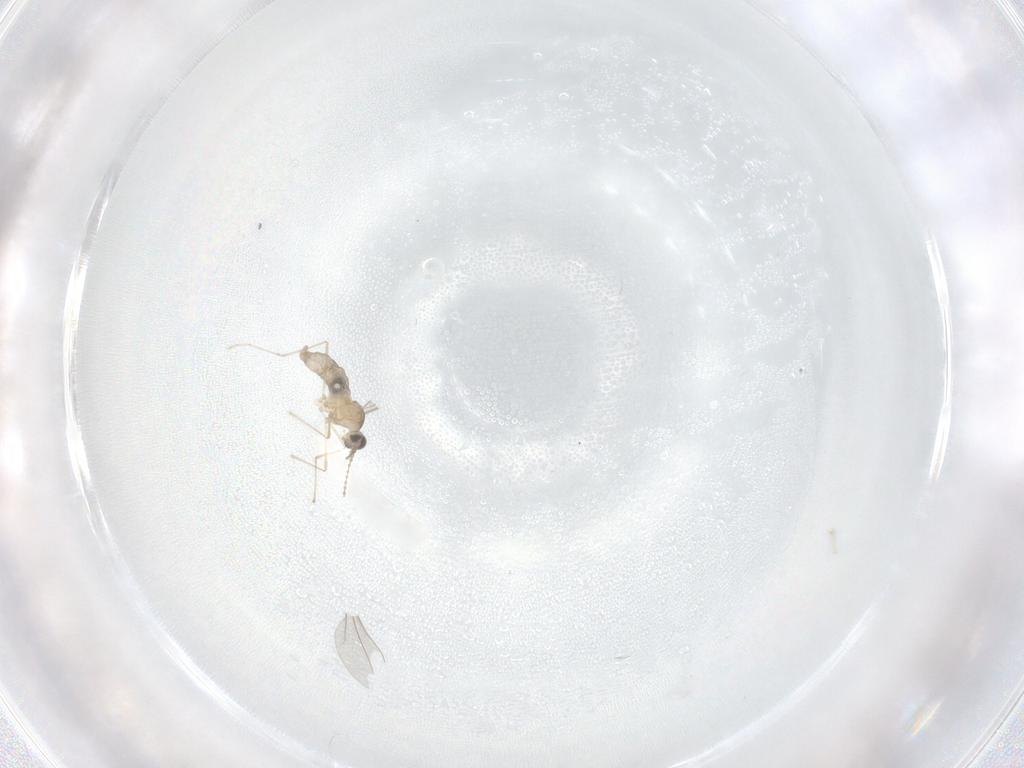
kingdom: Animalia
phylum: Arthropoda
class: Insecta
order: Diptera
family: Cecidomyiidae
